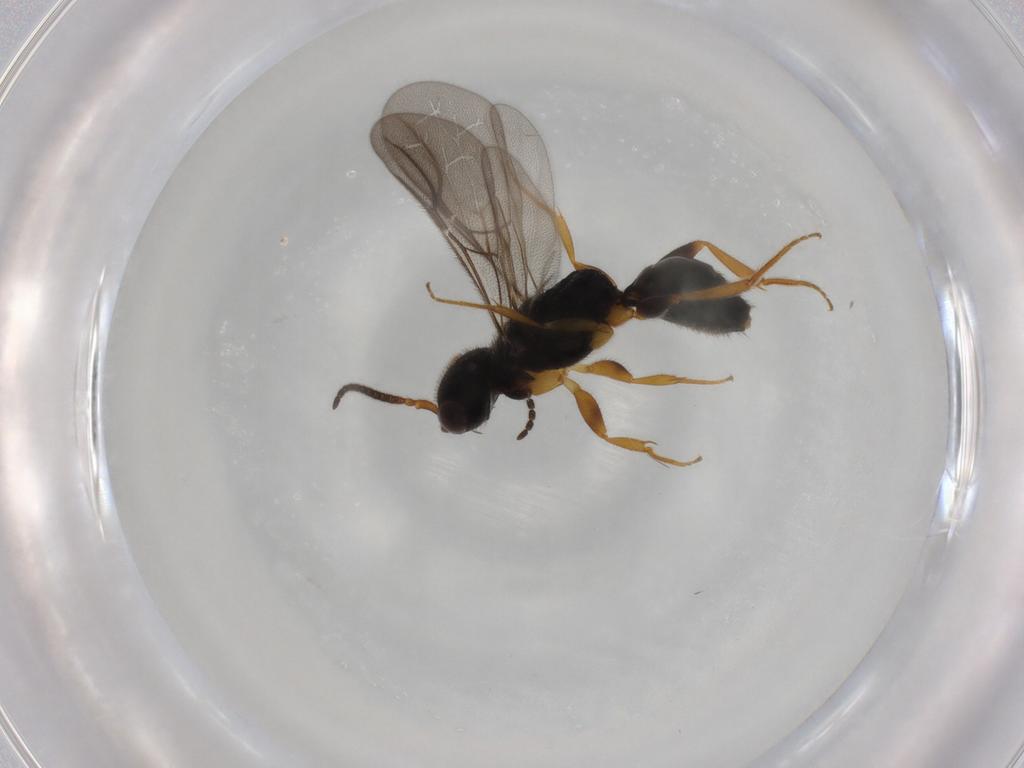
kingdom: Animalia
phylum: Arthropoda
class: Insecta
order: Hymenoptera
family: Bethylidae
